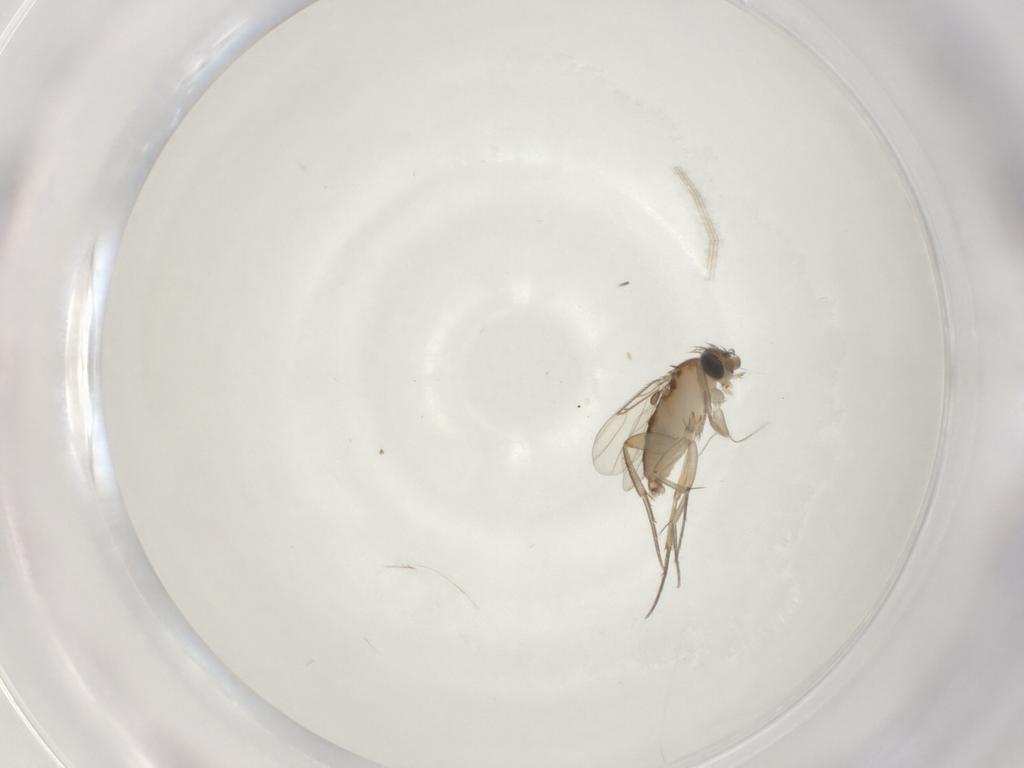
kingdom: Animalia
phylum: Arthropoda
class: Insecta
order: Diptera
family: Phoridae
